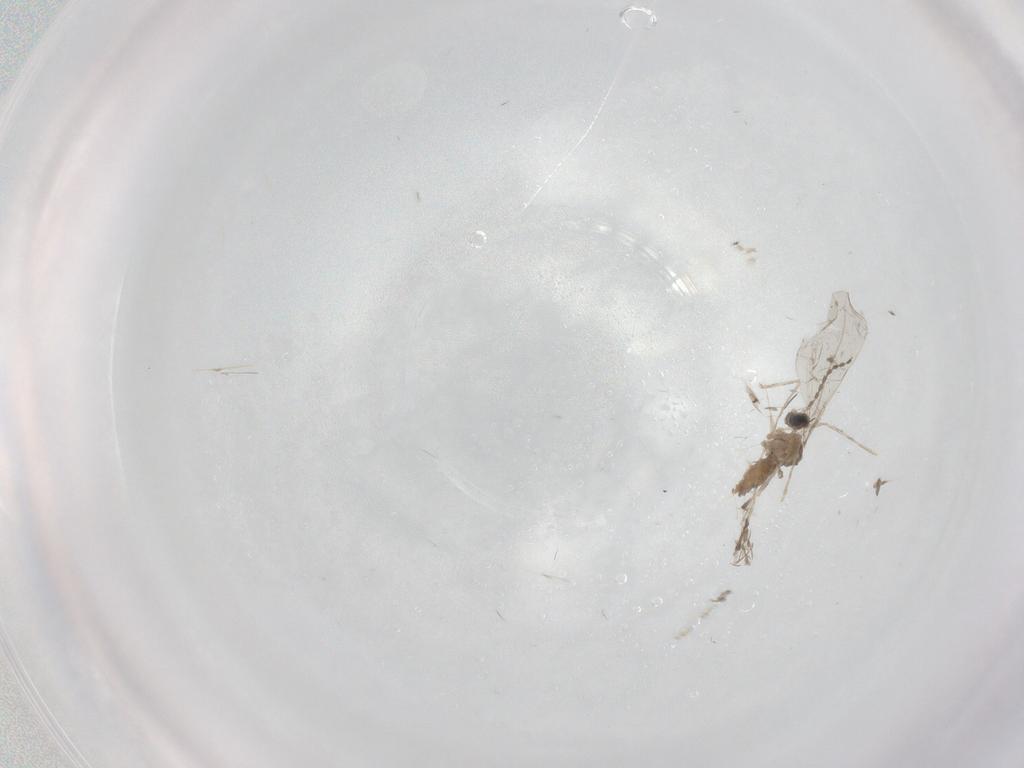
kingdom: Animalia
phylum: Arthropoda
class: Insecta
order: Diptera
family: Cecidomyiidae
